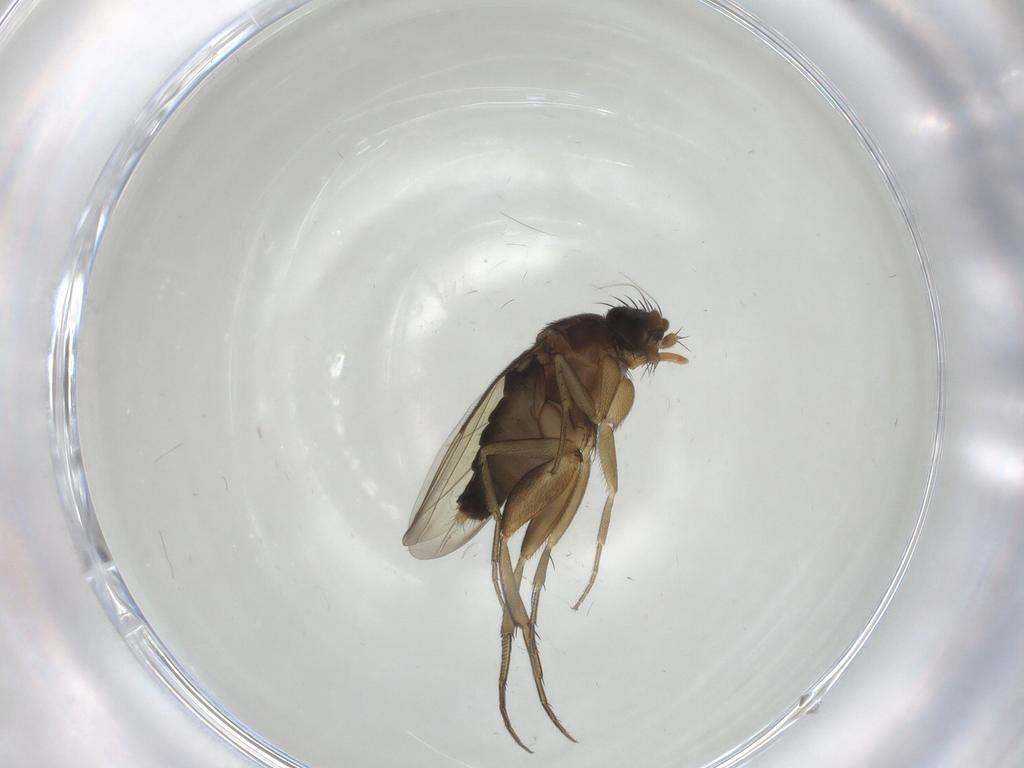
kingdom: Animalia
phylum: Arthropoda
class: Insecta
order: Diptera
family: Phoridae
